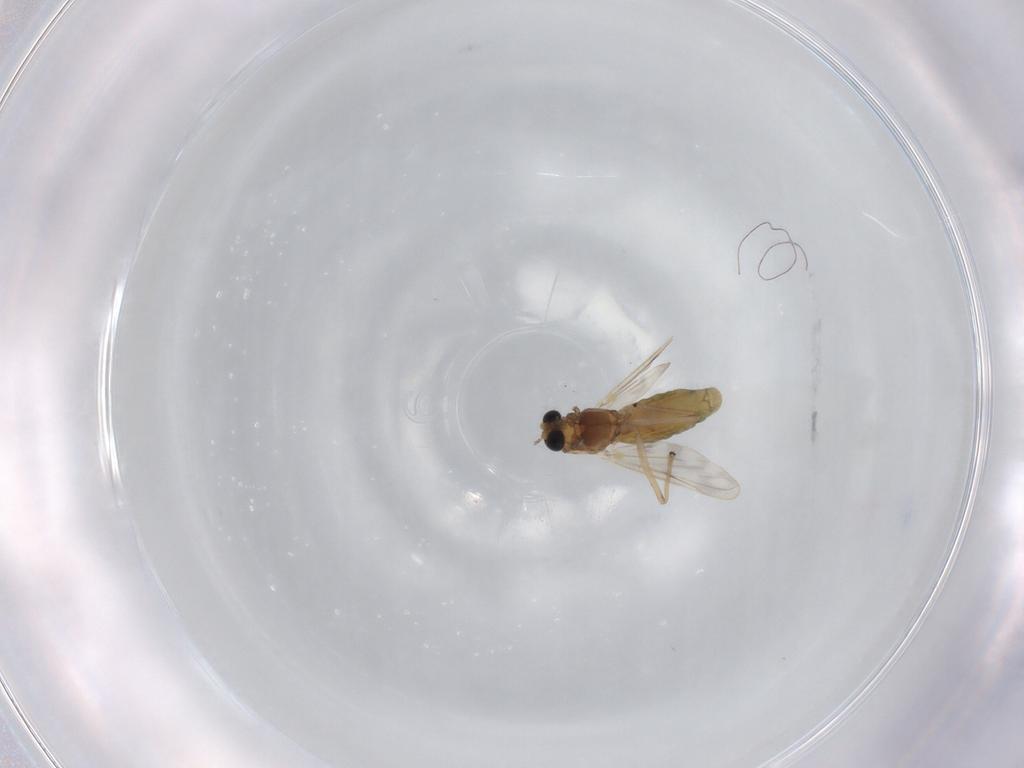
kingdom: Animalia
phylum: Arthropoda
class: Insecta
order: Diptera
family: Chironomidae
